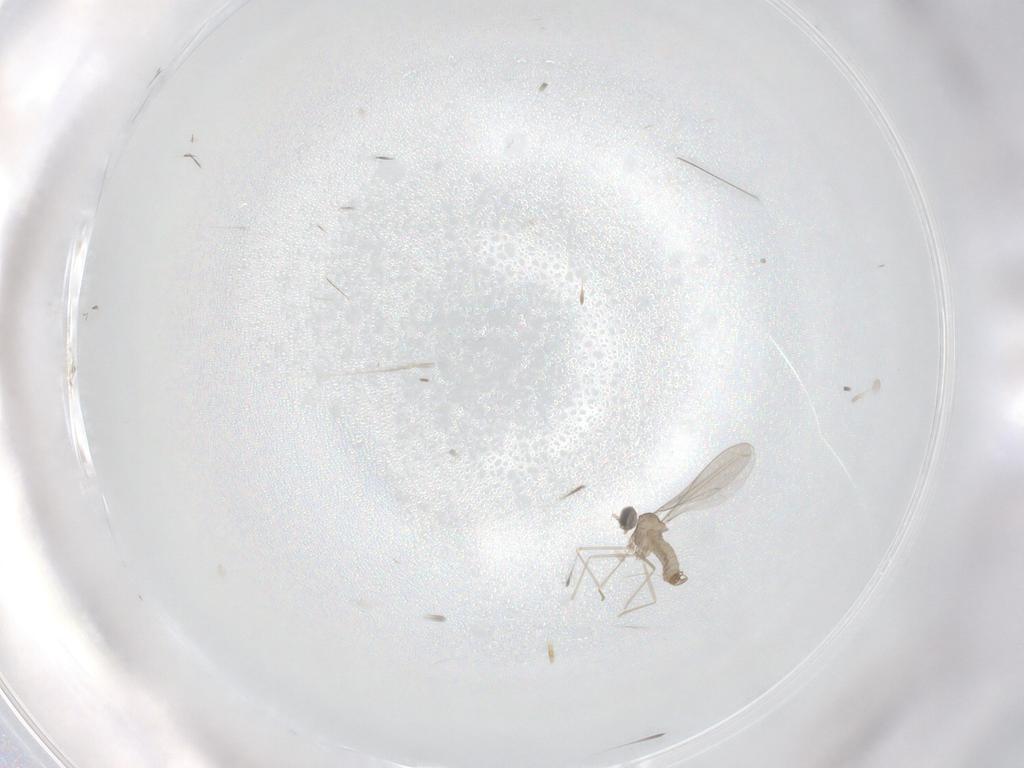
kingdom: Animalia
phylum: Arthropoda
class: Insecta
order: Diptera
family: Cecidomyiidae
